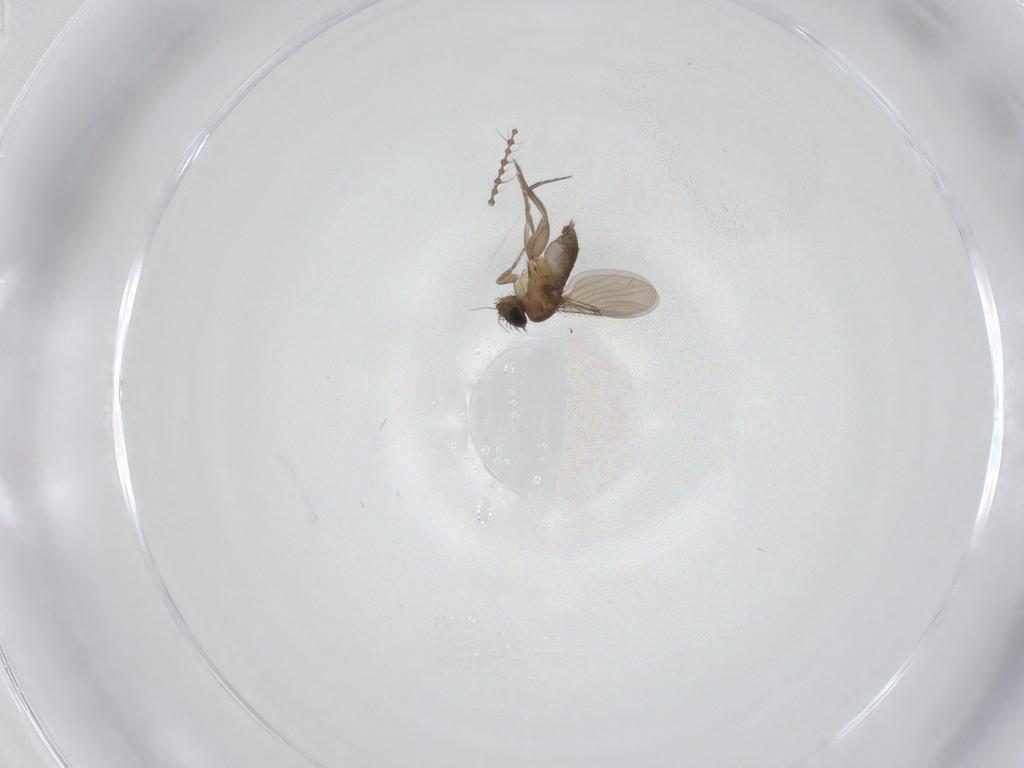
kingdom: Animalia
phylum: Arthropoda
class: Insecta
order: Diptera
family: Phoridae
